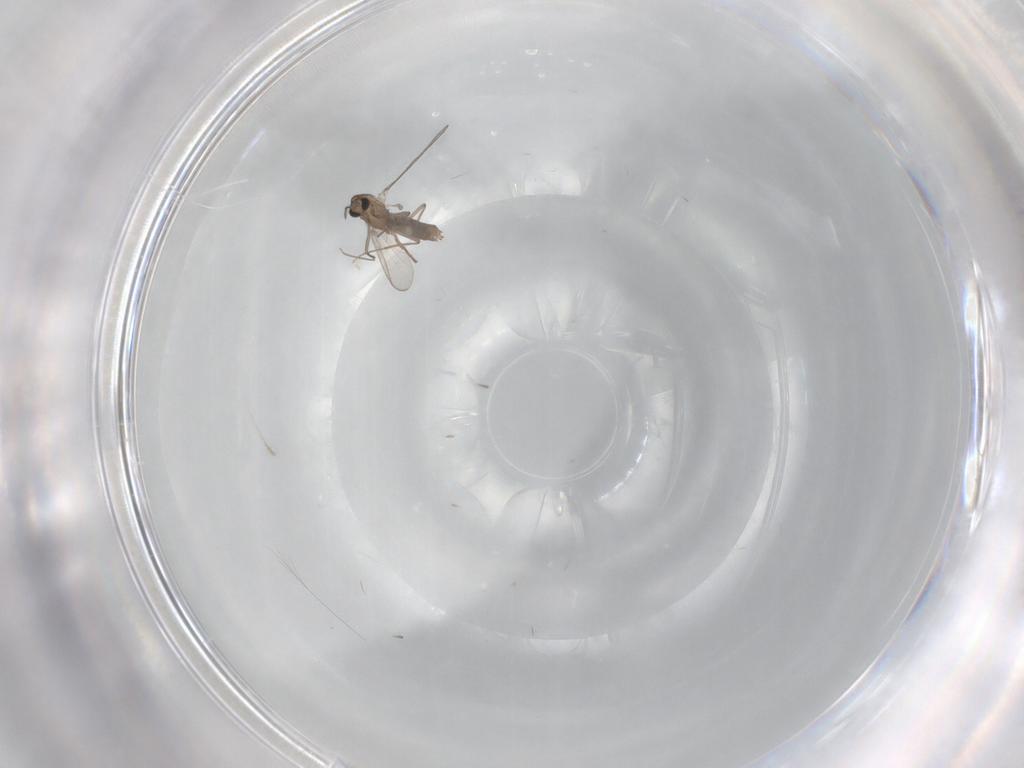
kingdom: Animalia
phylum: Arthropoda
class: Insecta
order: Diptera
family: Chironomidae
